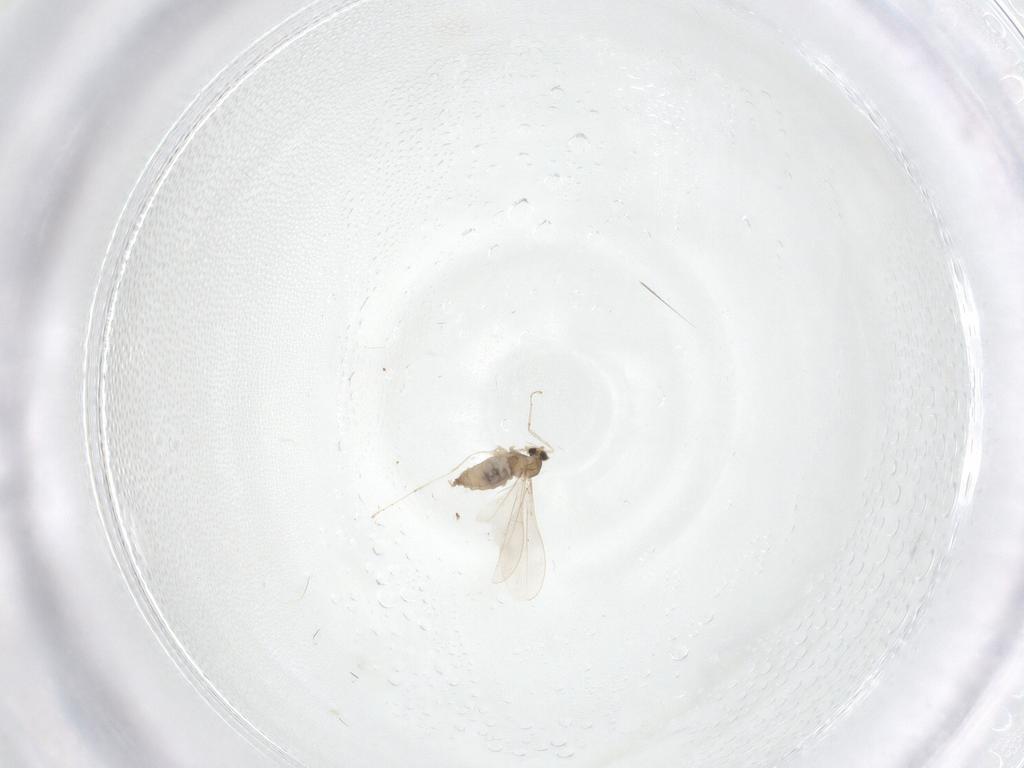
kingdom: Animalia
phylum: Arthropoda
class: Insecta
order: Diptera
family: Cecidomyiidae
